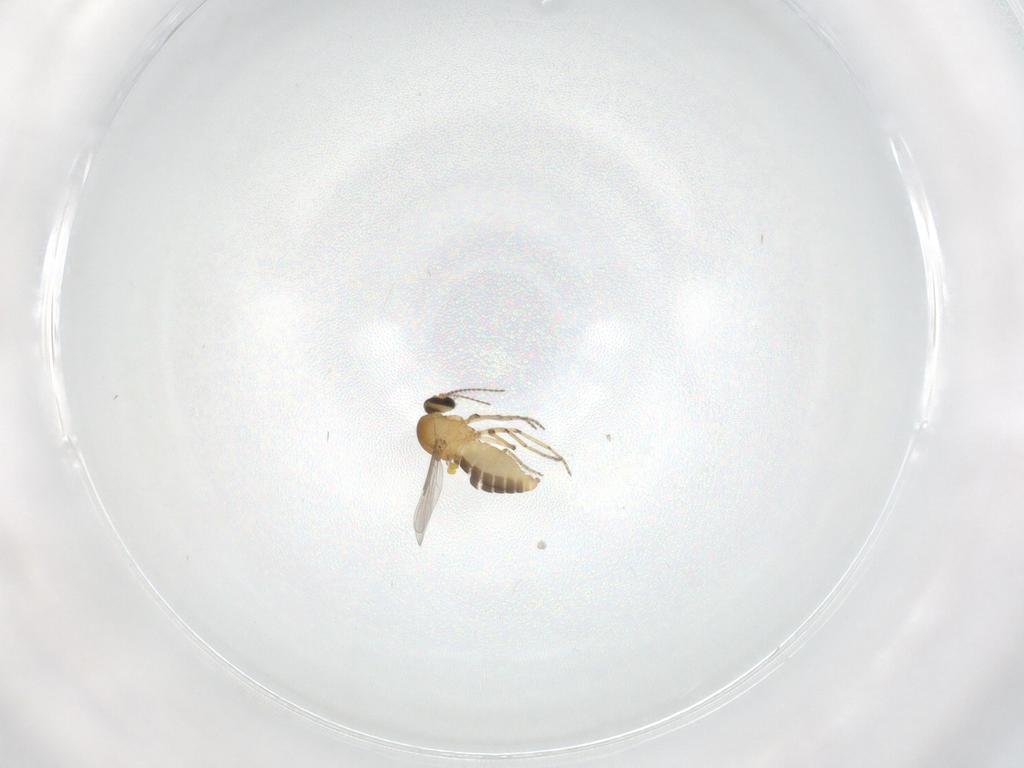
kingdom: Animalia
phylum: Arthropoda
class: Insecta
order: Diptera
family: Ceratopogonidae
